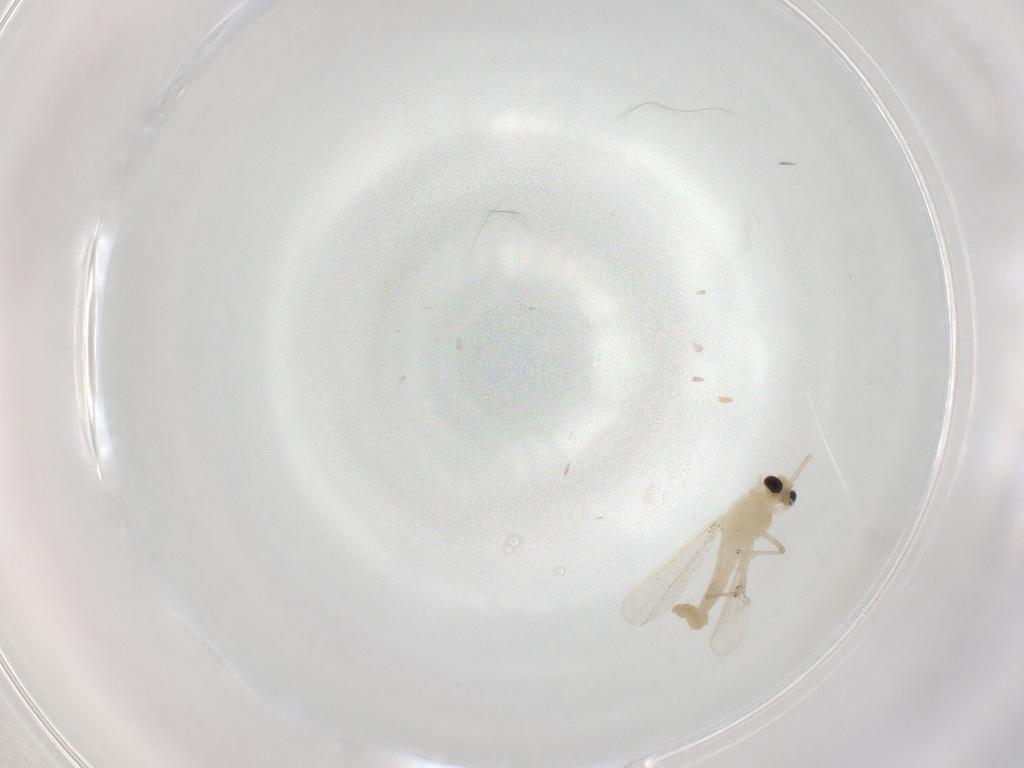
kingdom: Animalia
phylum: Arthropoda
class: Insecta
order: Diptera
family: Chironomidae
